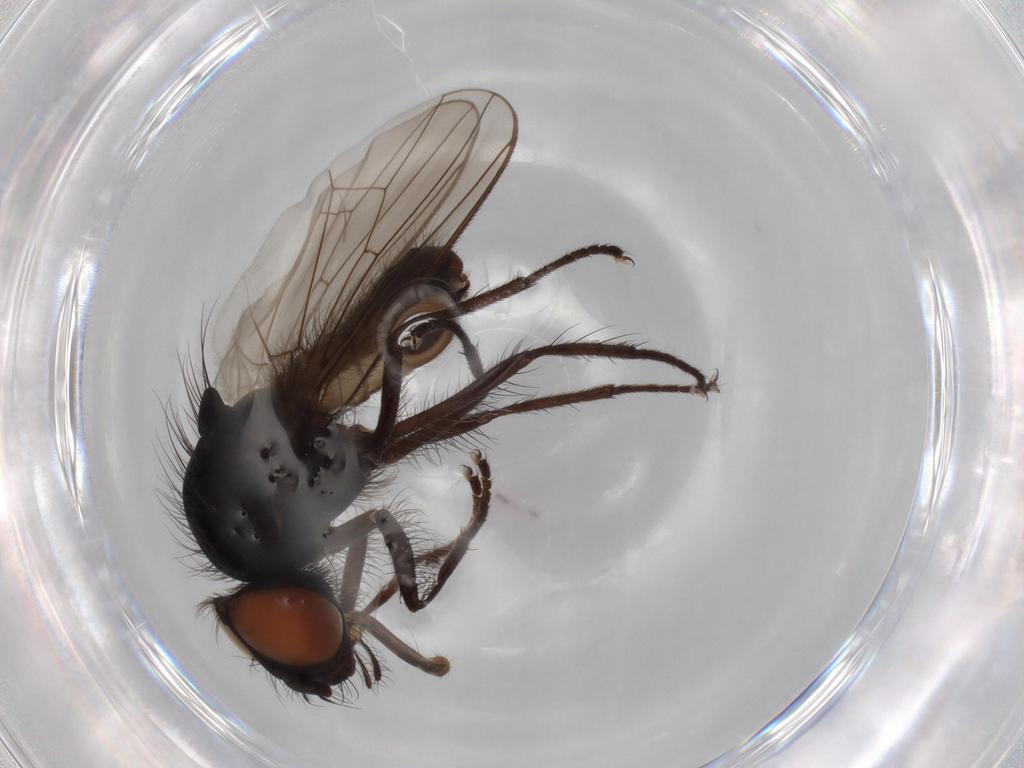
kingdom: Animalia
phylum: Arthropoda
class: Insecta
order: Diptera
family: Anthomyiidae
